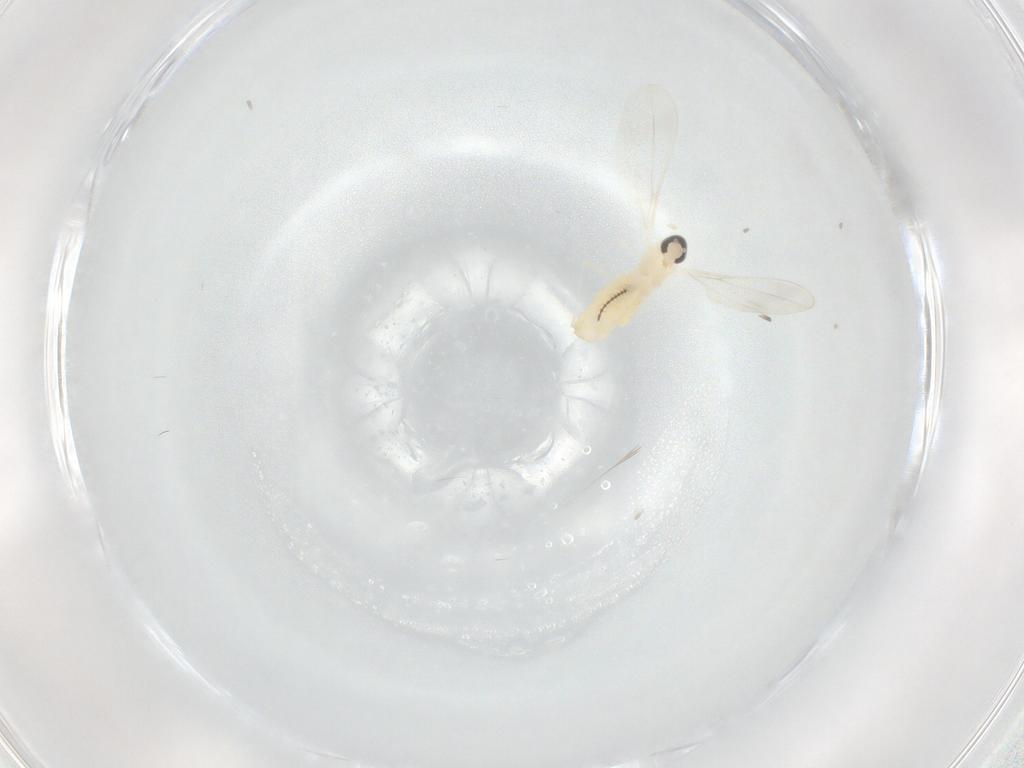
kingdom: Animalia
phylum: Arthropoda
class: Insecta
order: Diptera
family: Cecidomyiidae
